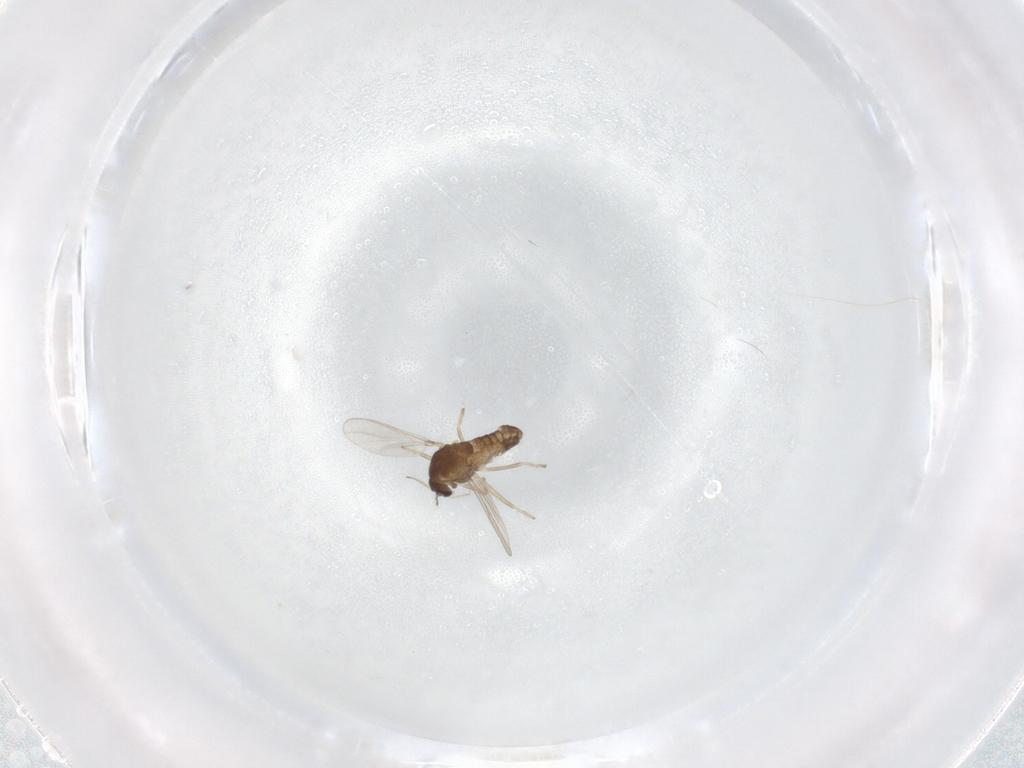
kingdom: Animalia
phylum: Arthropoda
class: Insecta
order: Diptera
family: Chironomidae
